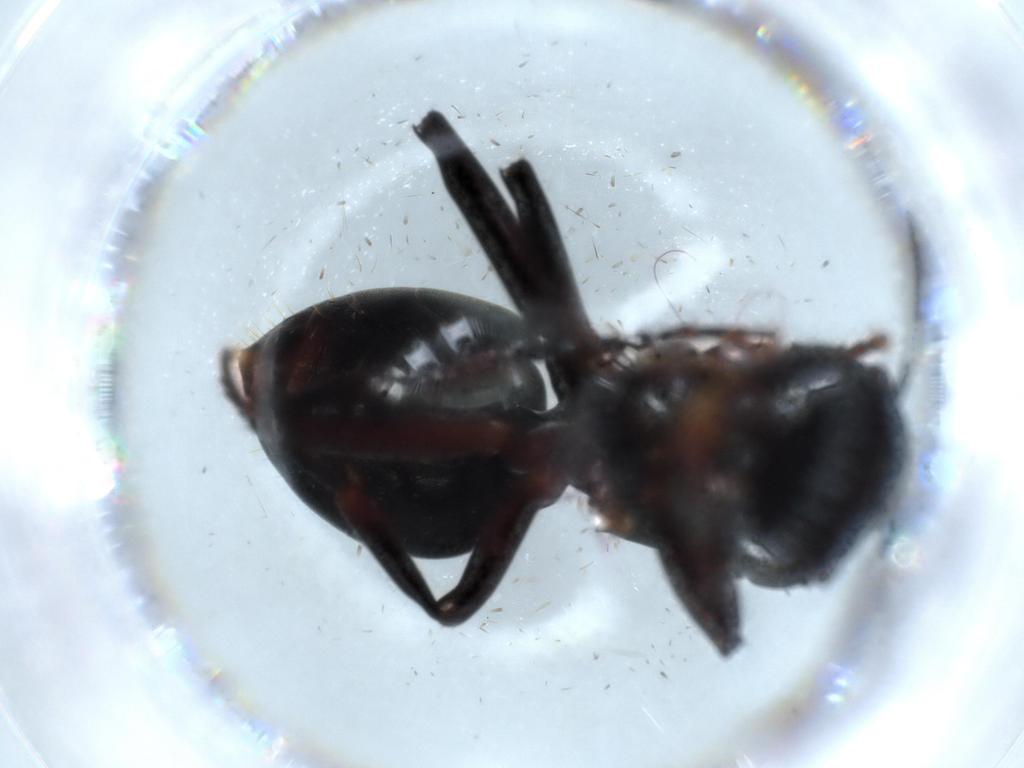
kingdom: Animalia
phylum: Arthropoda
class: Insecta
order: Hymenoptera
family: Formicidae
